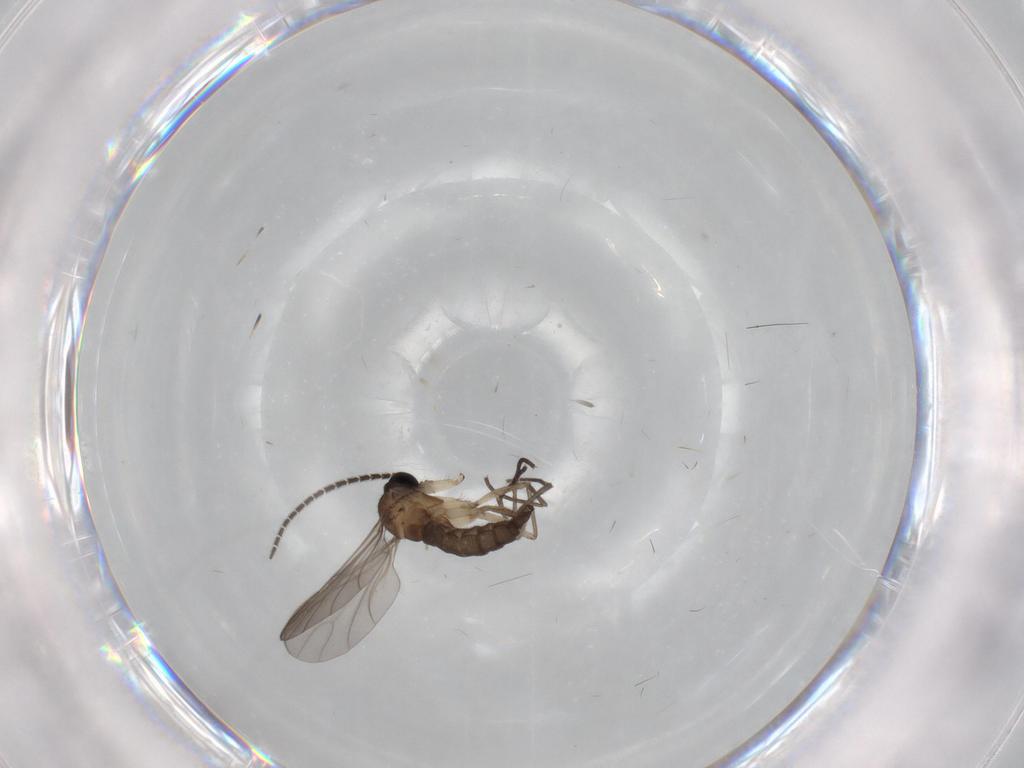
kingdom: Animalia
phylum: Arthropoda
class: Insecta
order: Diptera
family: Sciaridae
